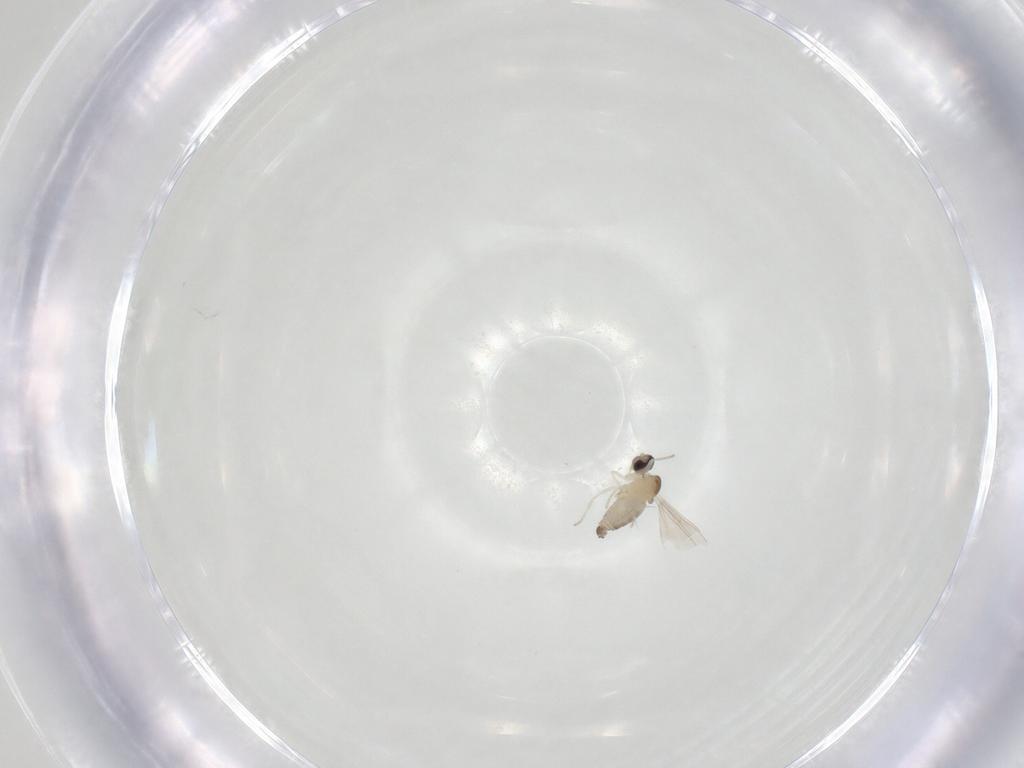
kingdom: Animalia
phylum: Arthropoda
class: Insecta
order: Diptera
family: Cecidomyiidae
